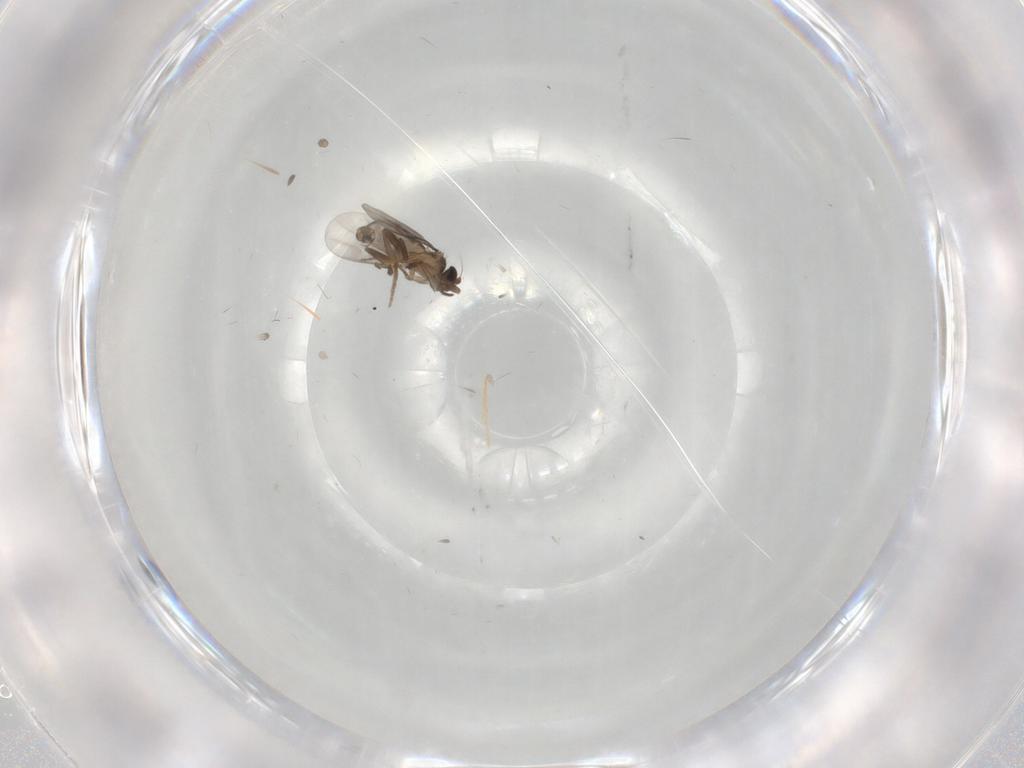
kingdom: Animalia
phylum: Arthropoda
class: Insecta
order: Diptera
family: Phoridae
